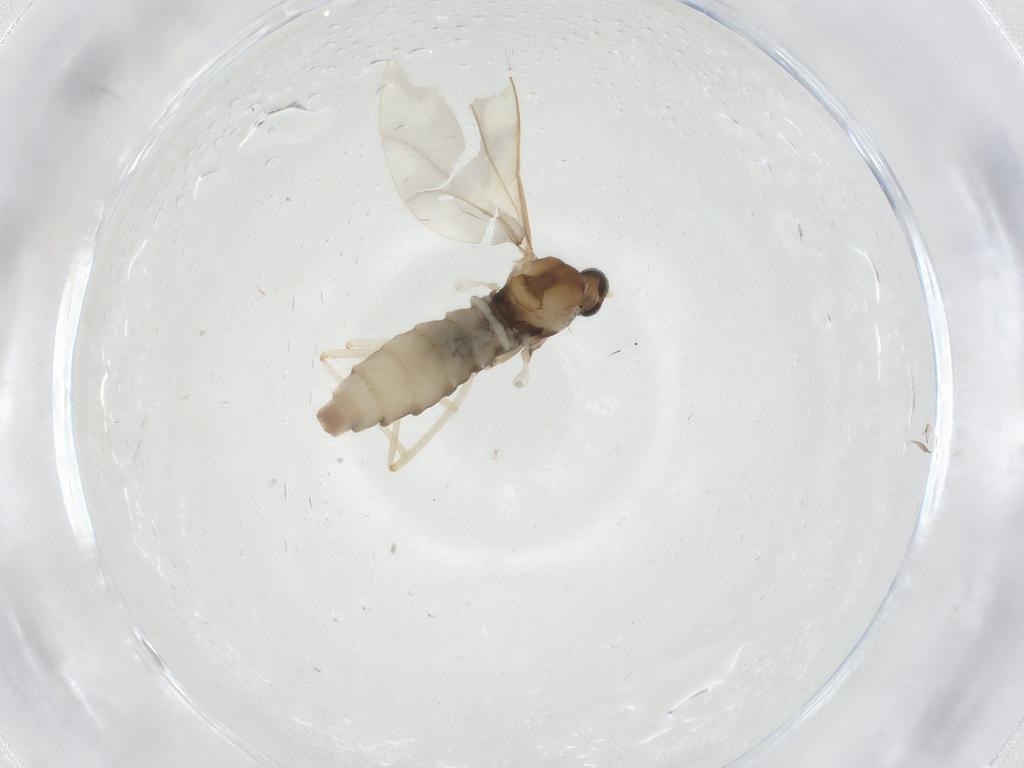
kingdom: Animalia
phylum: Arthropoda
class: Insecta
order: Diptera
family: Cecidomyiidae
